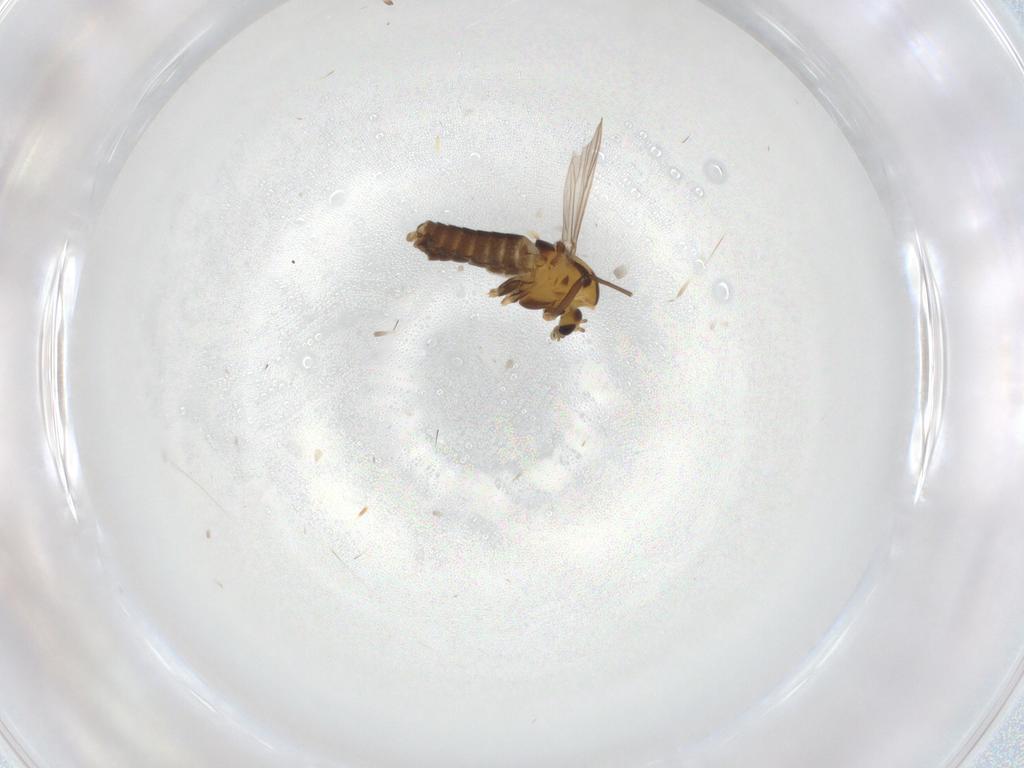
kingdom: Animalia
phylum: Arthropoda
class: Insecta
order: Diptera
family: Chironomidae
